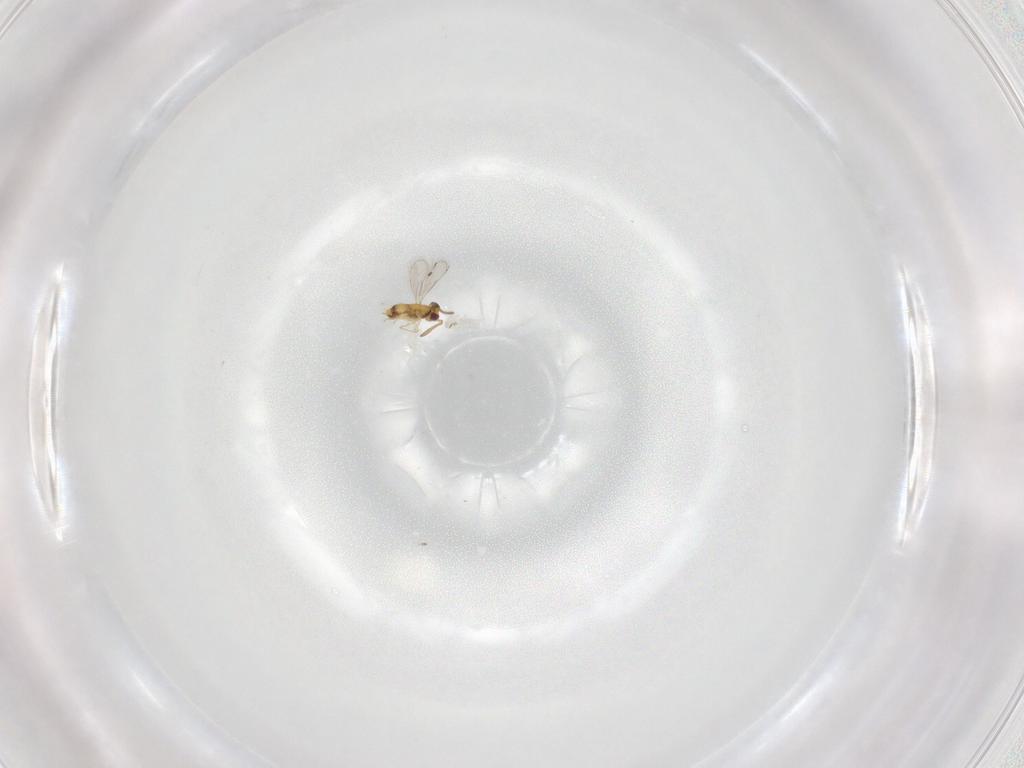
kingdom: Animalia
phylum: Arthropoda
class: Insecta
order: Hymenoptera
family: Aphelinidae
